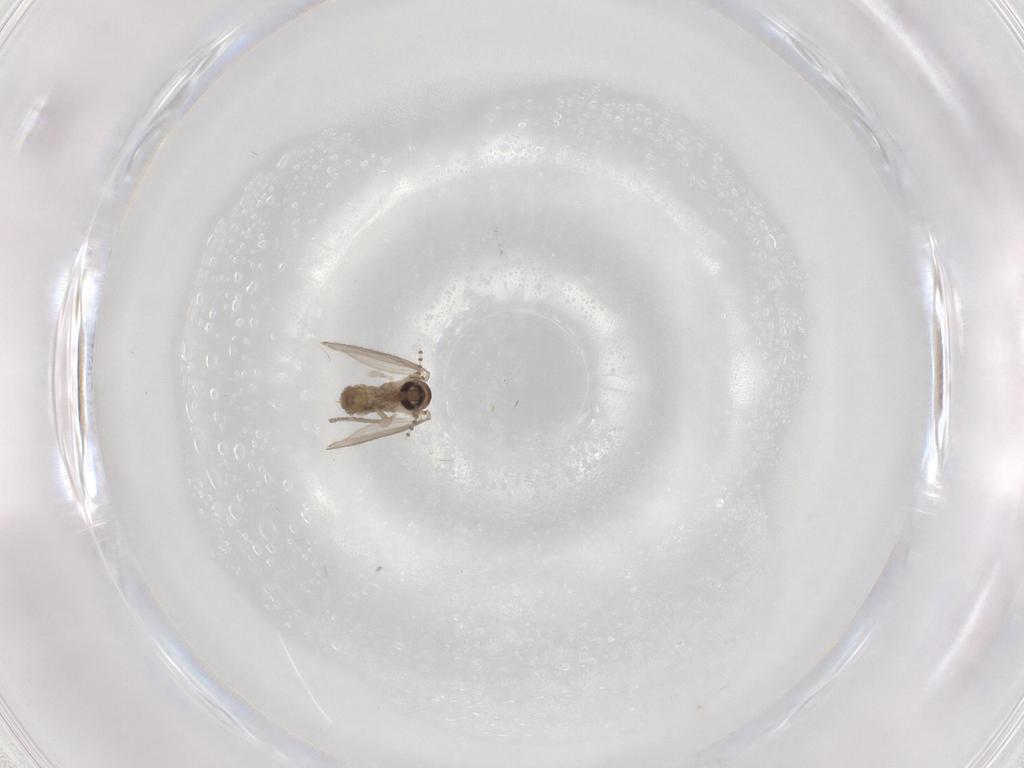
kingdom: Animalia
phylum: Arthropoda
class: Insecta
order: Diptera
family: Psychodidae
